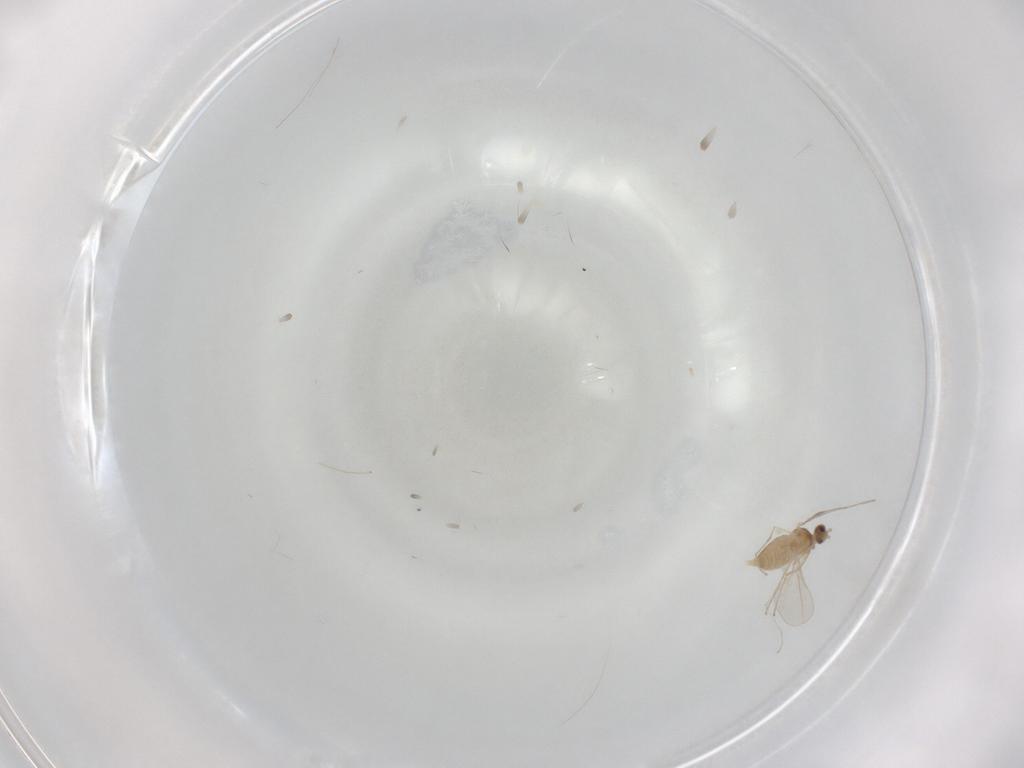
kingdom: Animalia
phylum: Arthropoda
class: Insecta
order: Diptera
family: Cecidomyiidae
